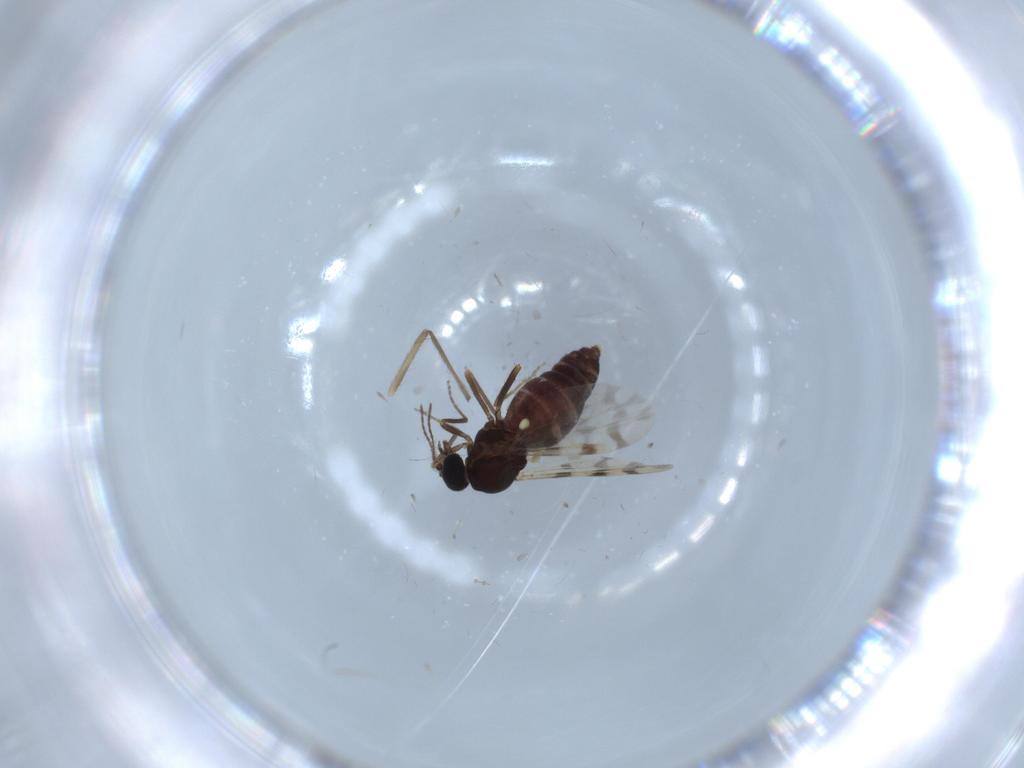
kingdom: Animalia
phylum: Arthropoda
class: Insecta
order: Diptera
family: Ceratopogonidae
